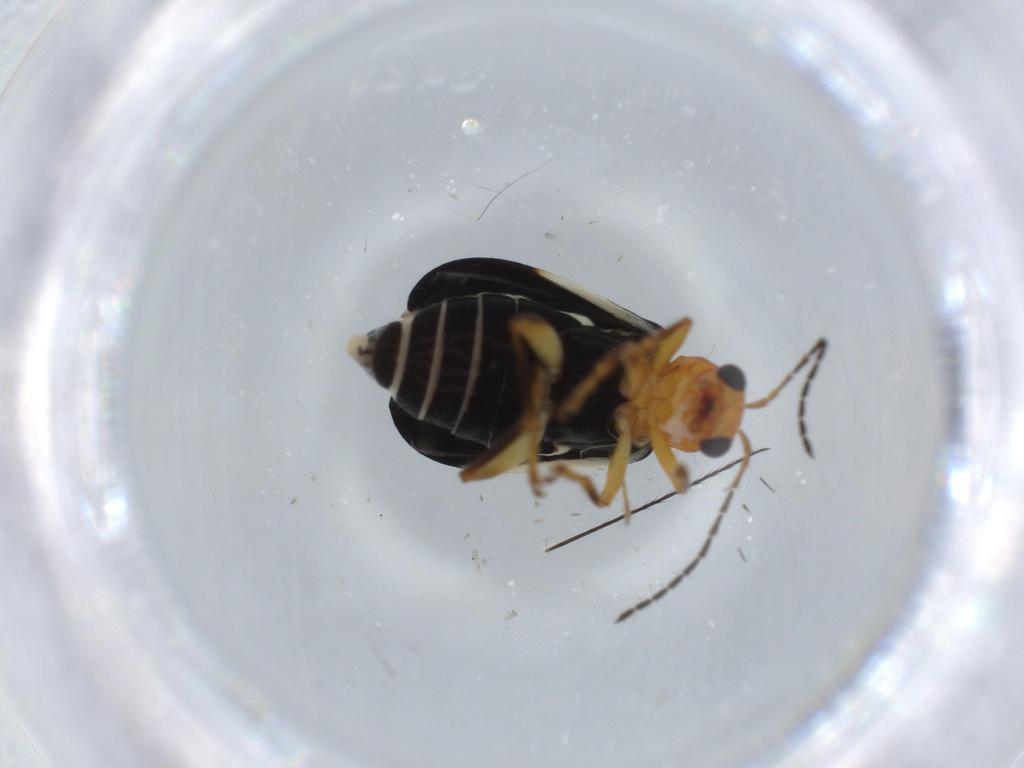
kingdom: Animalia
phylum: Arthropoda
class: Insecta
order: Coleoptera
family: Chrysomelidae
